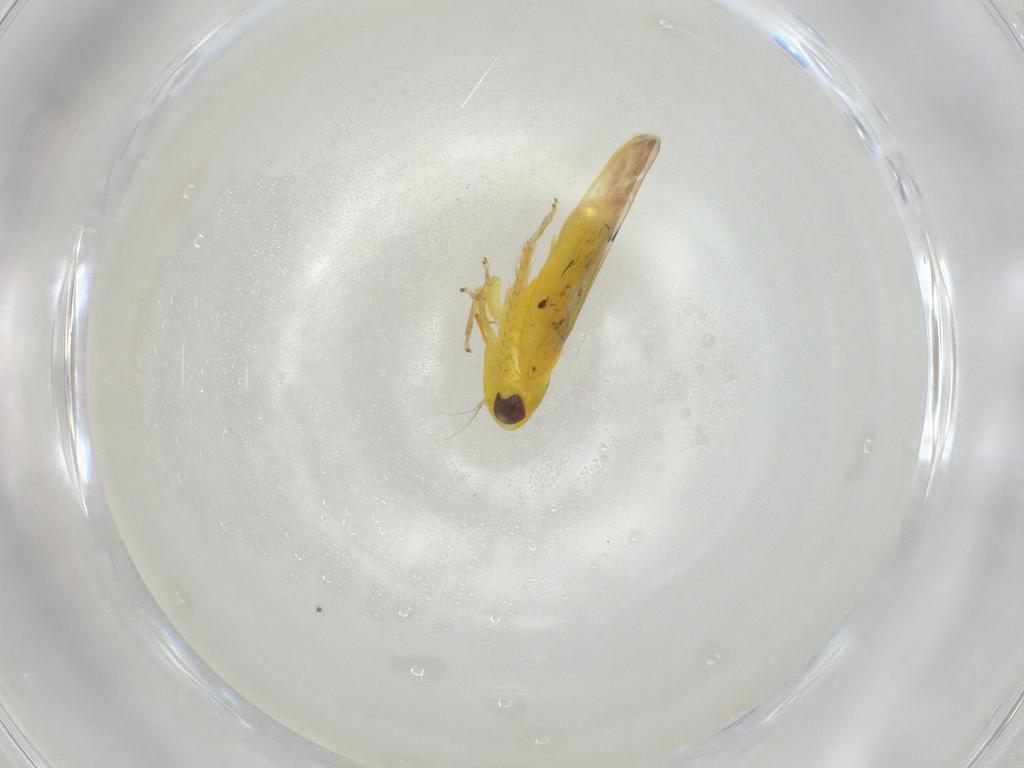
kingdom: Animalia
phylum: Arthropoda
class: Insecta
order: Hemiptera
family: Cicadellidae
